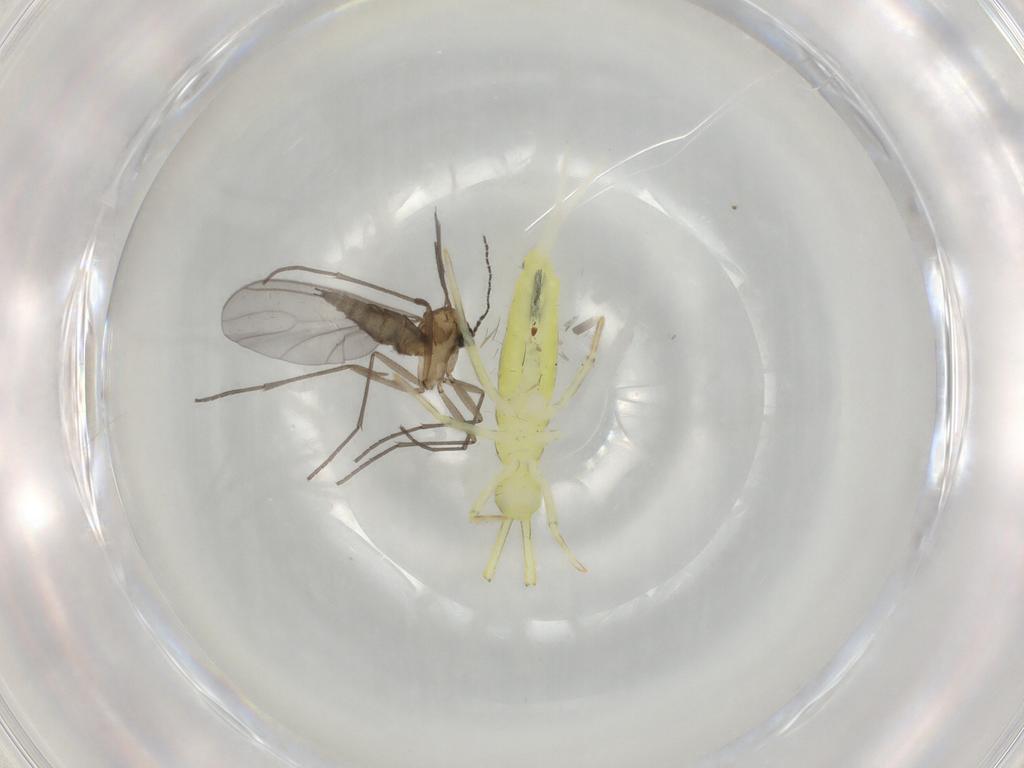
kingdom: Animalia
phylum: Arthropoda
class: Insecta
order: Diptera
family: Sciaridae
